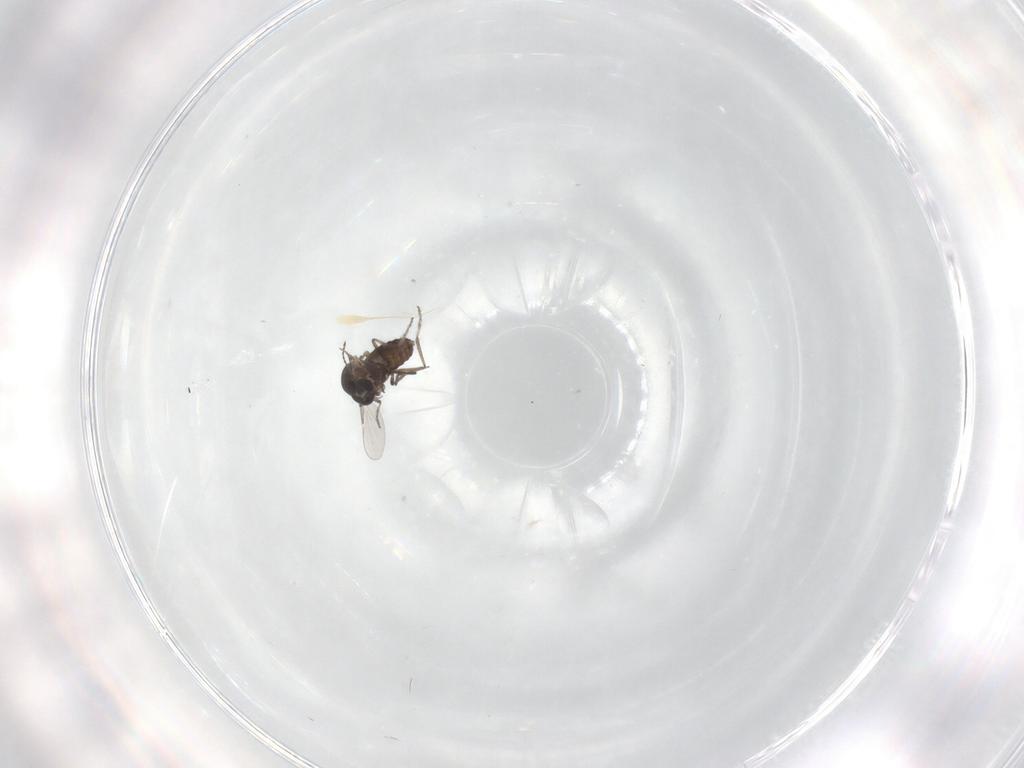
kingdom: Animalia
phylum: Arthropoda
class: Insecta
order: Diptera
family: Ceratopogonidae
